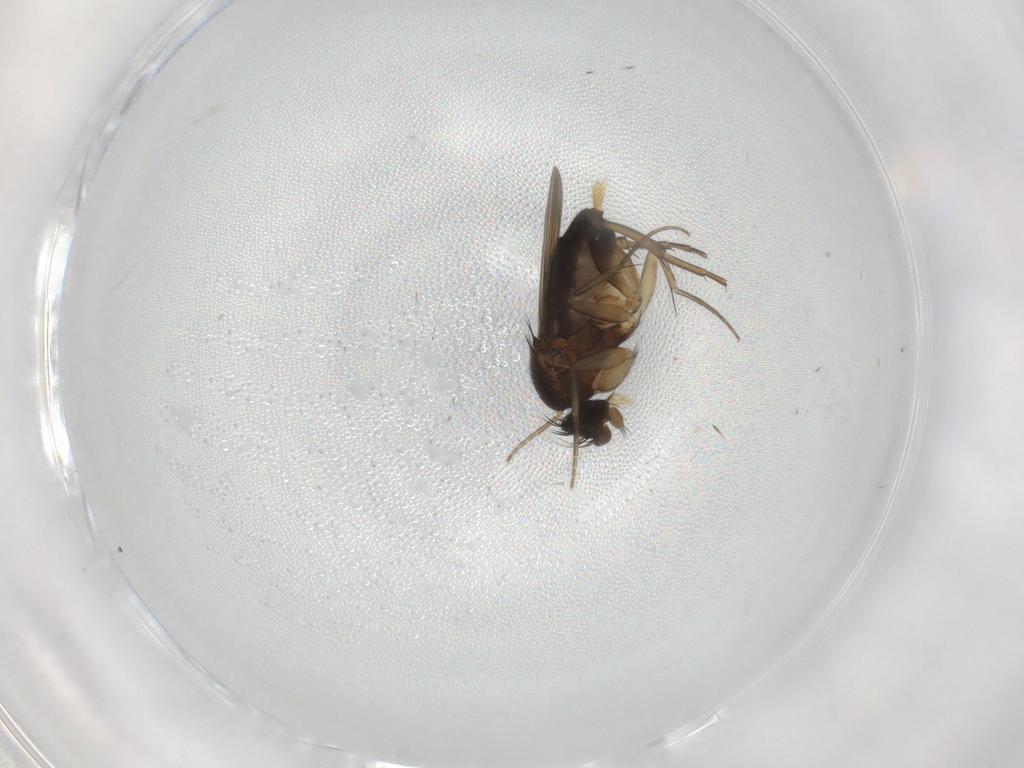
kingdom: Animalia
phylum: Arthropoda
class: Insecta
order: Diptera
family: Phoridae
